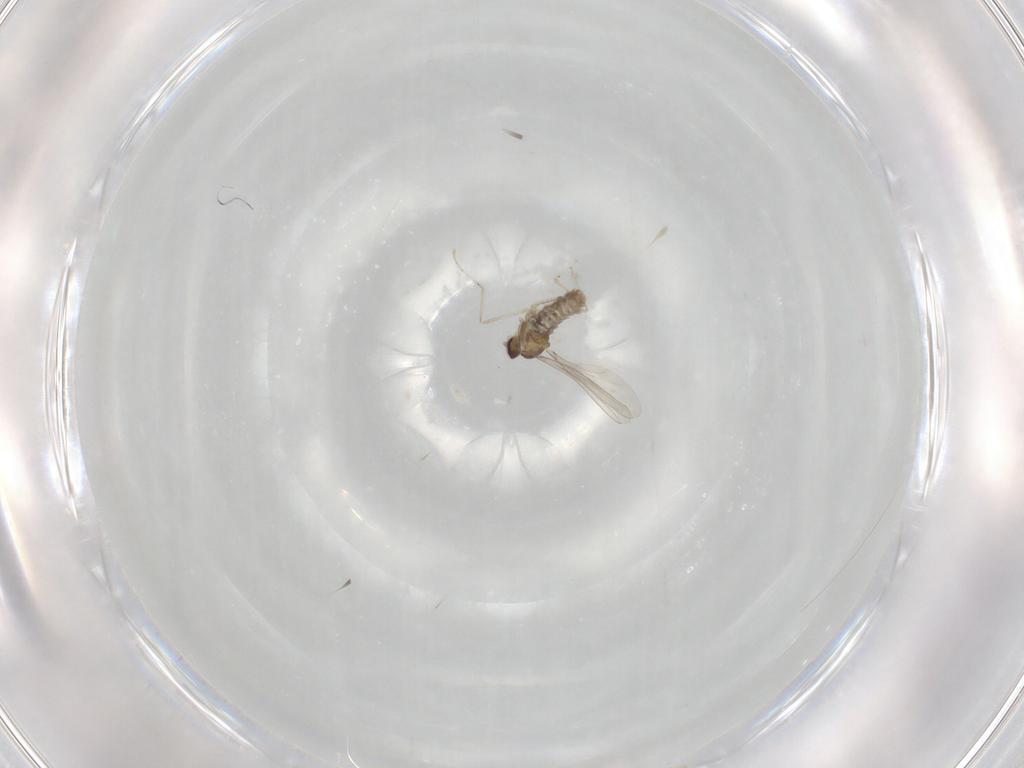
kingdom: Animalia
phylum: Arthropoda
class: Insecta
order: Diptera
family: Cecidomyiidae
